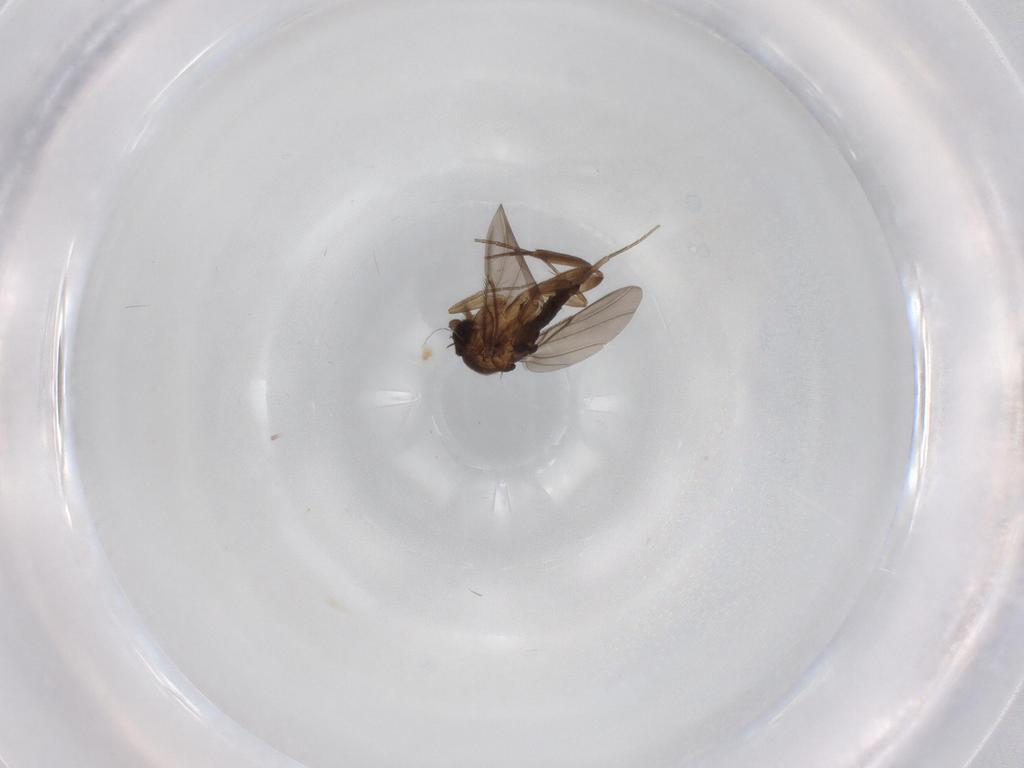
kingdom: Animalia
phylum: Arthropoda
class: Insecta
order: Diptera
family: Phoridae
